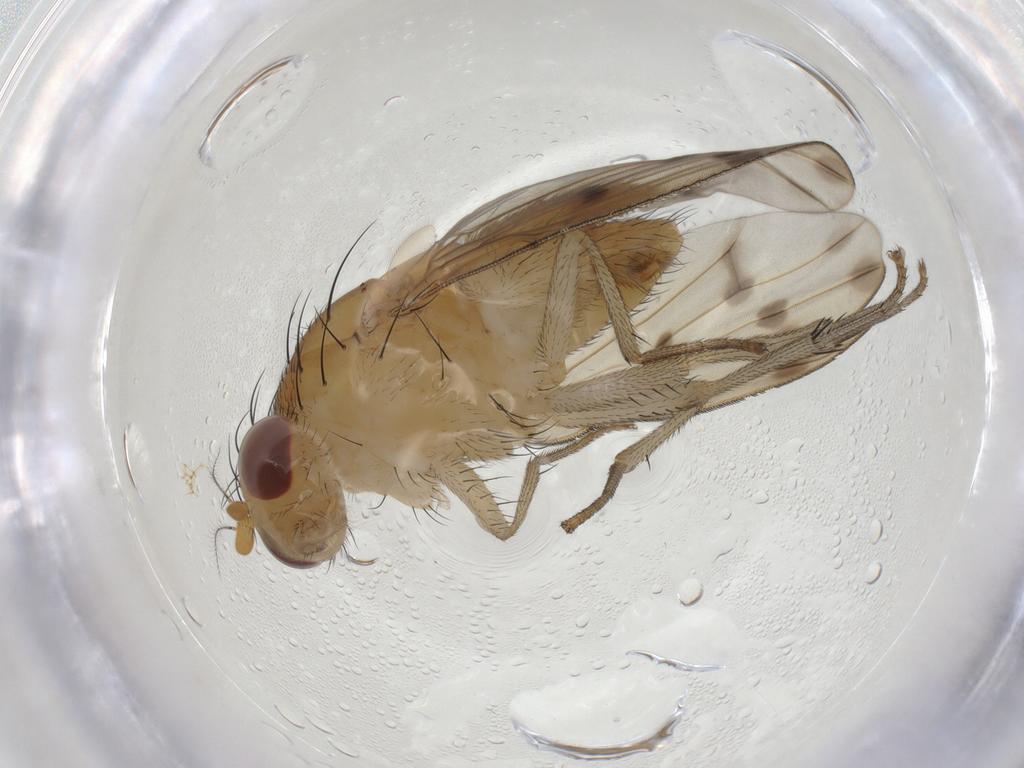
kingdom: Animalia
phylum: Arthropoda
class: Insecta
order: Diptera
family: Lauxaniidae
